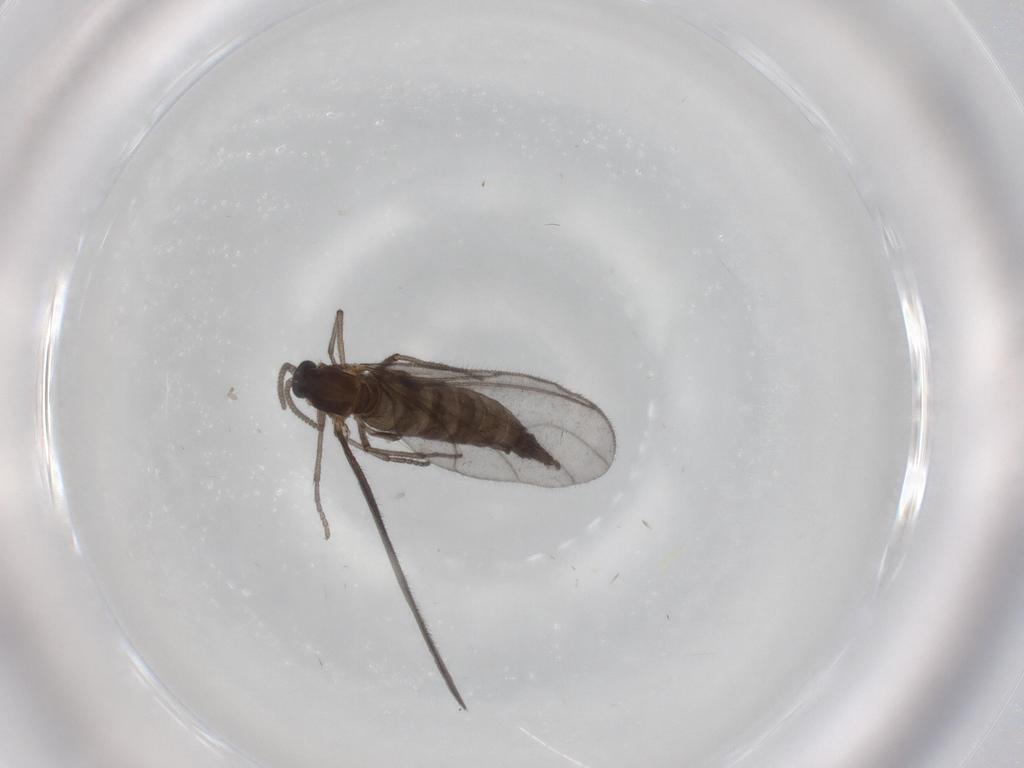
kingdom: Animalia
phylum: Arthropoda
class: Insecta
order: Diptera
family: Sciaridae
